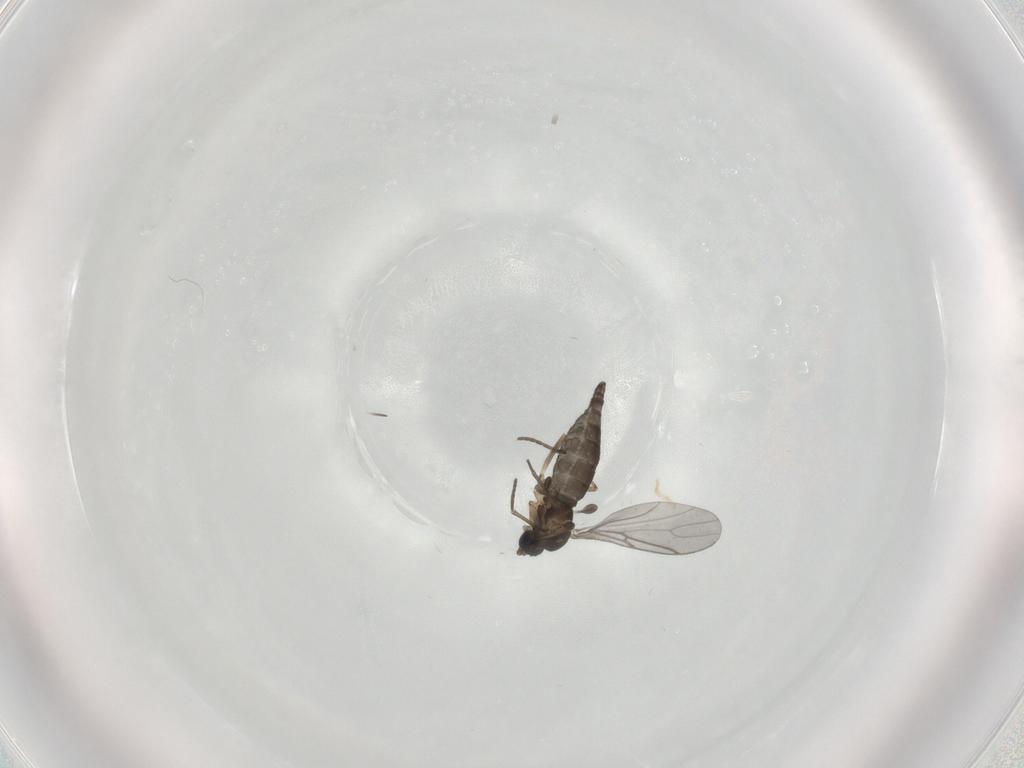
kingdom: Animalia
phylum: Arthropoda
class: Insecta
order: Diptera
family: Sciaridae
